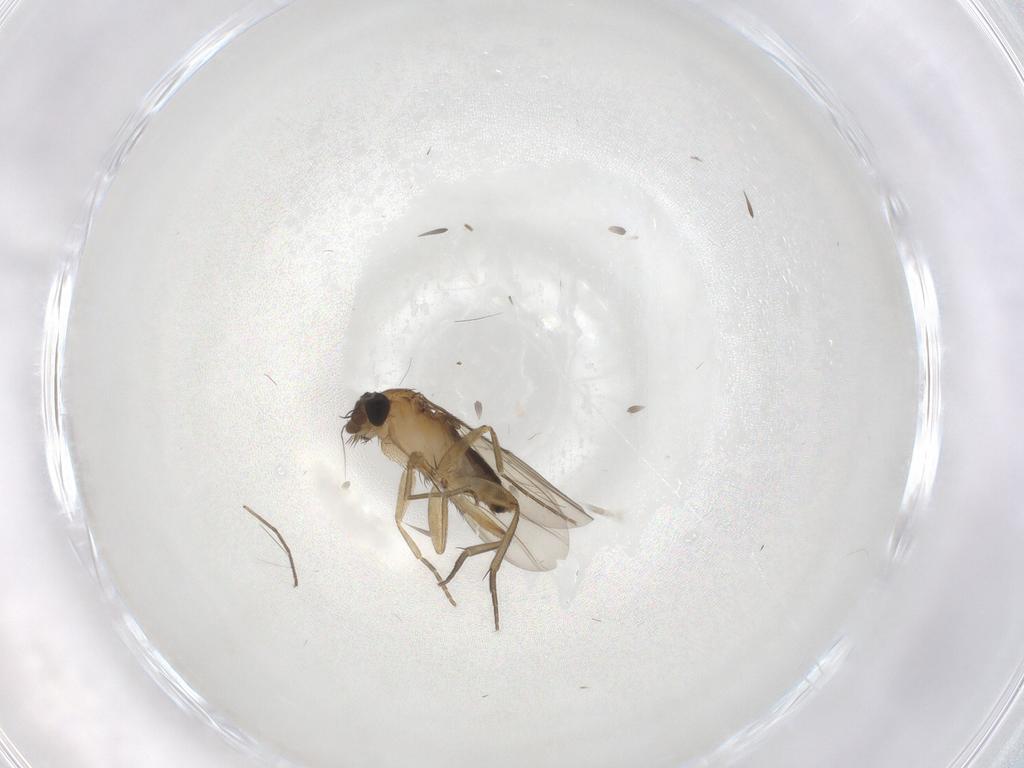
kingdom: Animalia
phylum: Arthropoda
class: Insecta
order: Diptera
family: Phoridae
